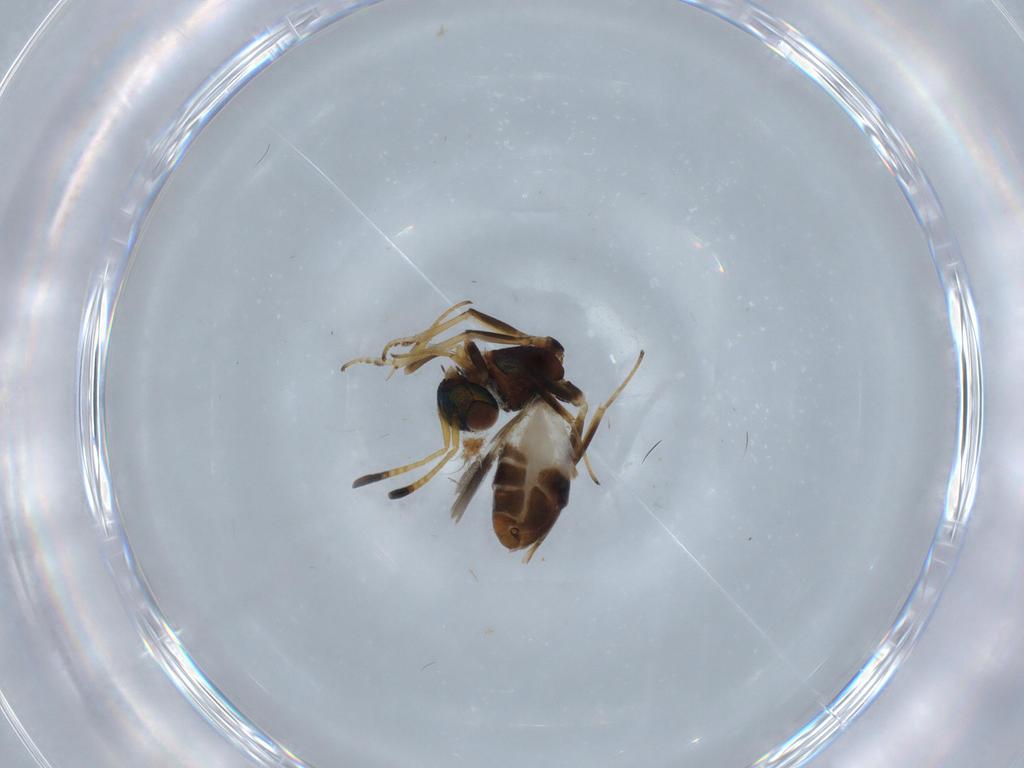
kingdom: Animalia
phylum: Arthropoda
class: Insecta
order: Hymenoptera
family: Eupelmidae
